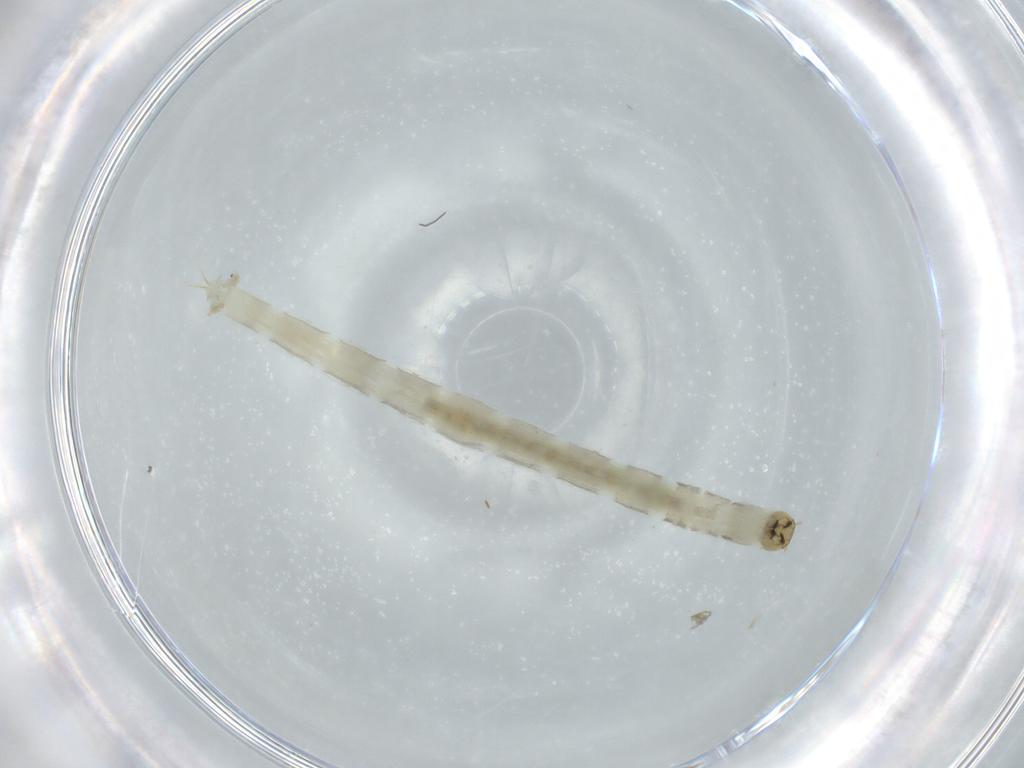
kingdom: Animalia
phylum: Arthropoda
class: Insecta
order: Diptera
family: Chironomidae
